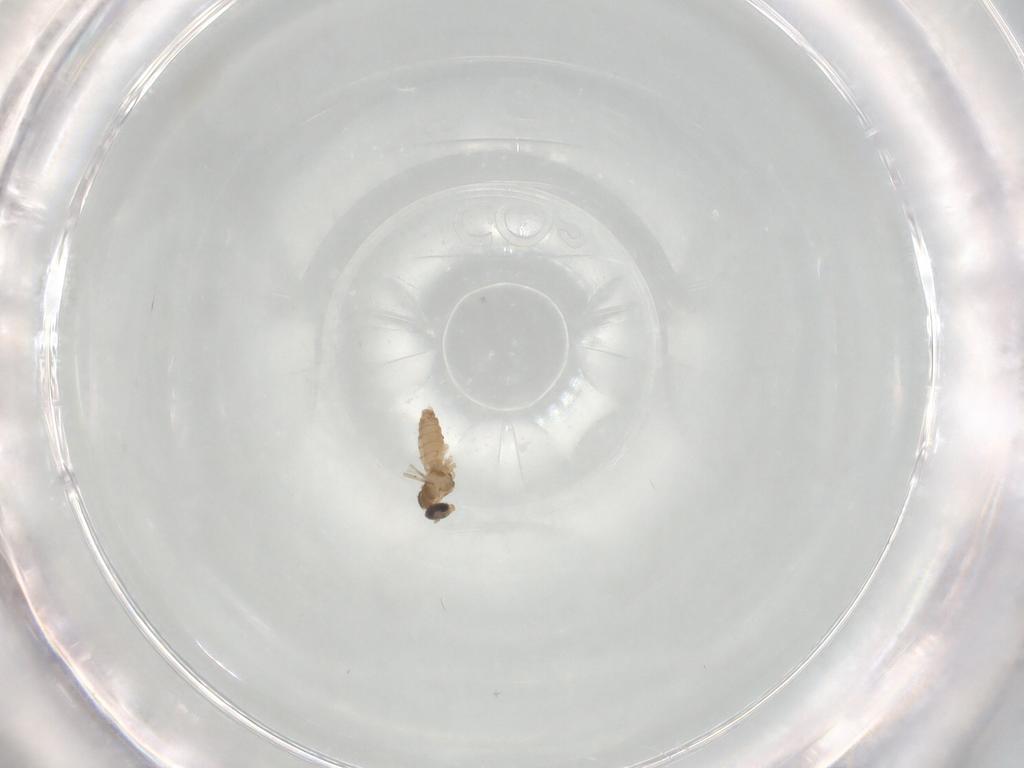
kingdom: Animalia
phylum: Arthropoda
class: Insecta
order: Diptera
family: Cecidomyiidae
